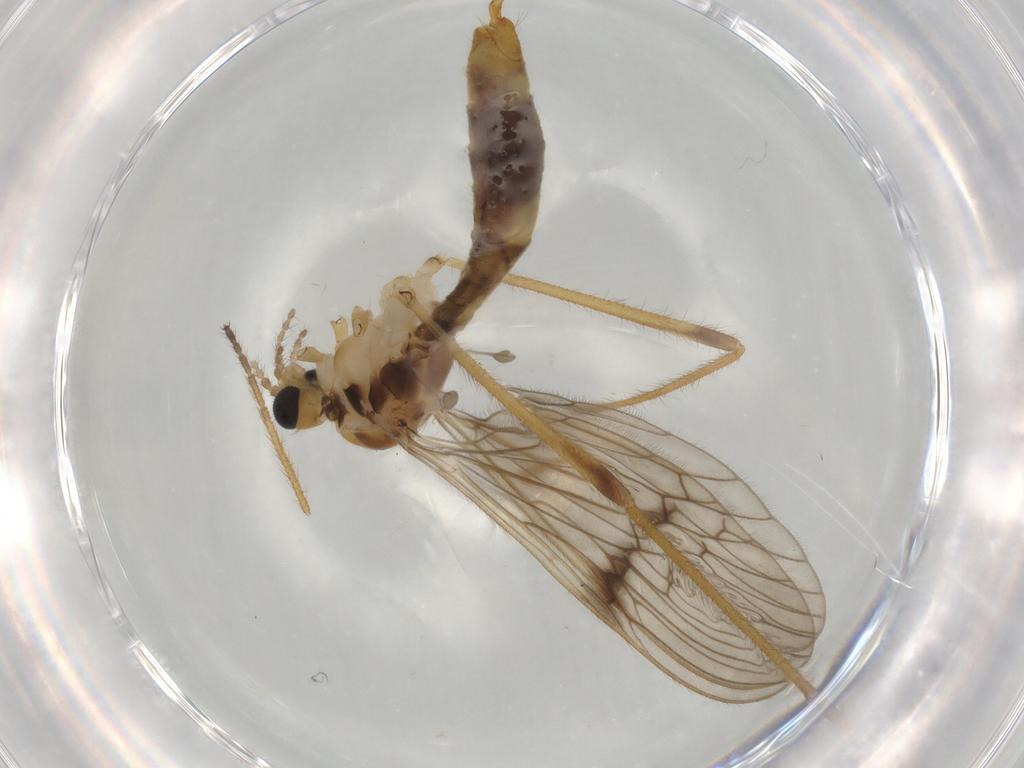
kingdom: Animalia
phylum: Arthropoda
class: Insecta
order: Diptera
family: Limoniidae
